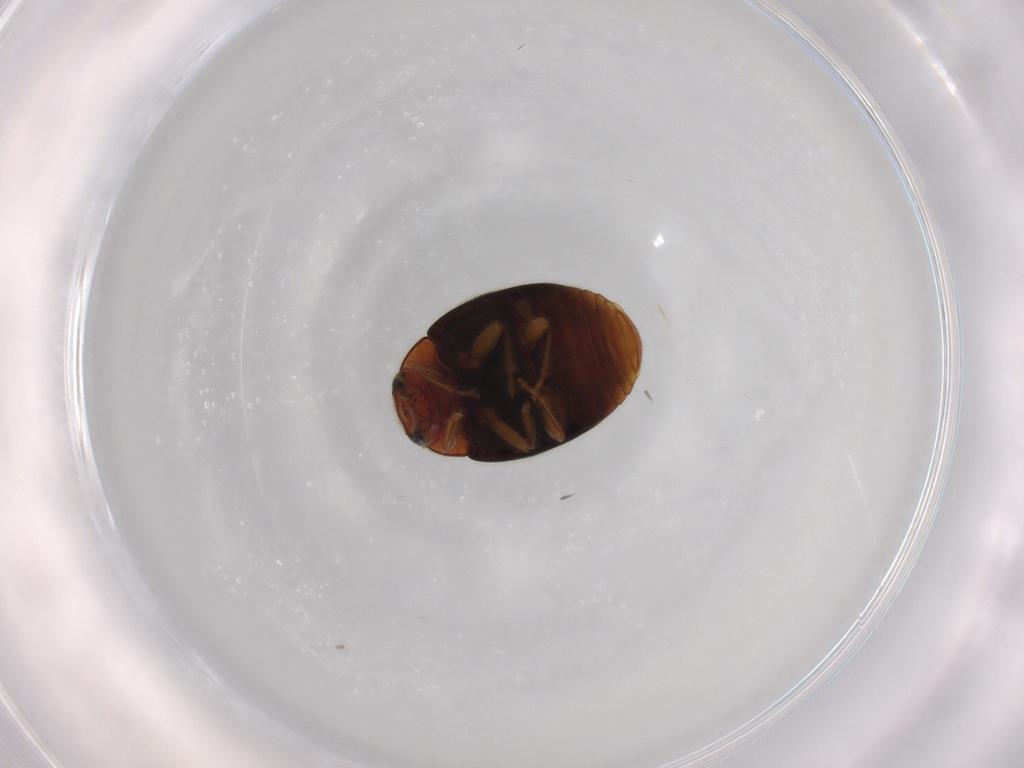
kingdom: Animalia
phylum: Arthropoda
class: Insecta
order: Coleoptera
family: Coccinellidae
